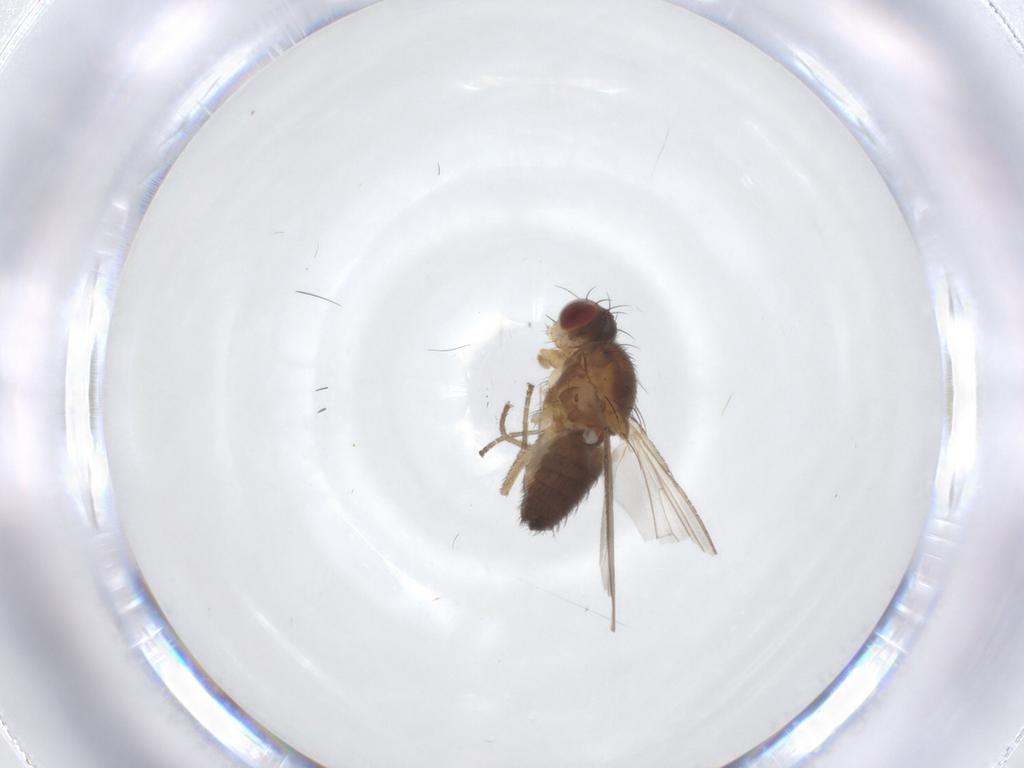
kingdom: Animalia
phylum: Arthropoda
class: Insecta
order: Diptera
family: Heleomyzidae
